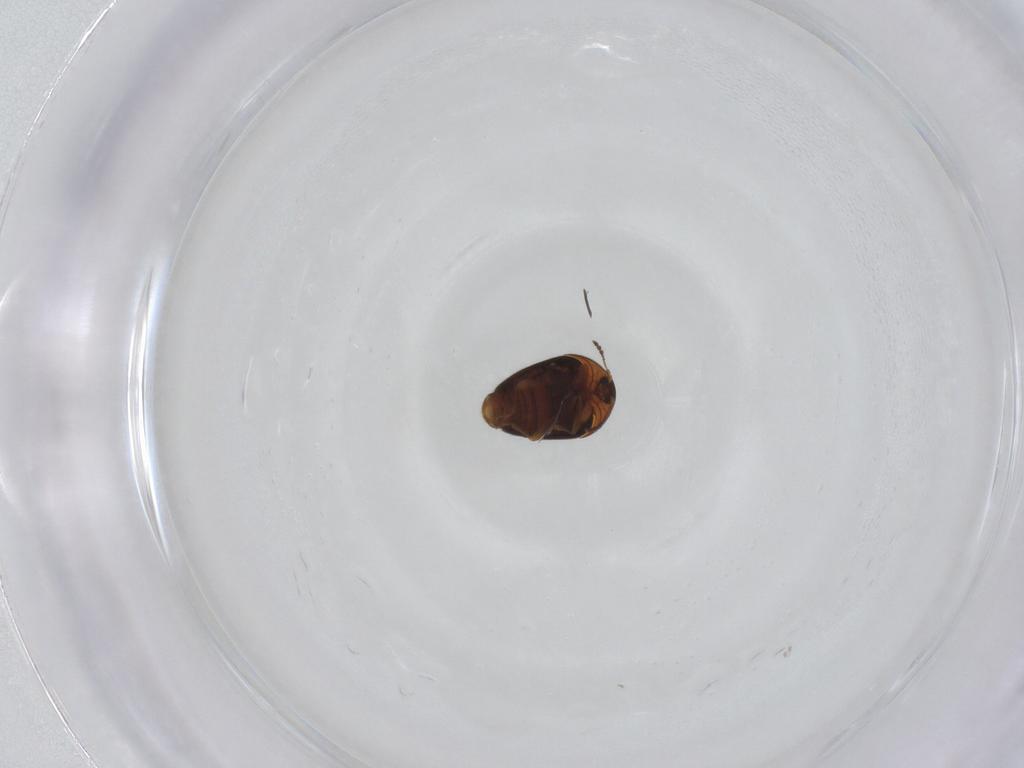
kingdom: Animalia
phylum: Arthropoda
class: Insecta
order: Coleoptera
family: Corylophidae
